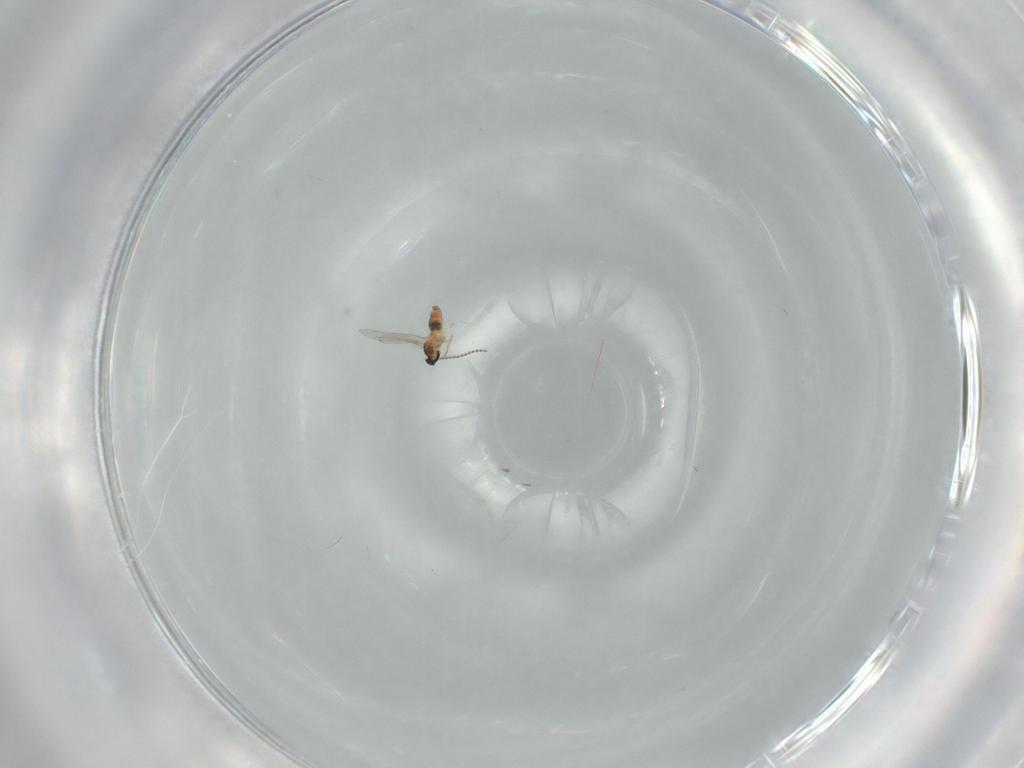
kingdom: Animalia
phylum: Arthropoda
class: Insecta
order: Diptera
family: Cecidomyiidae
